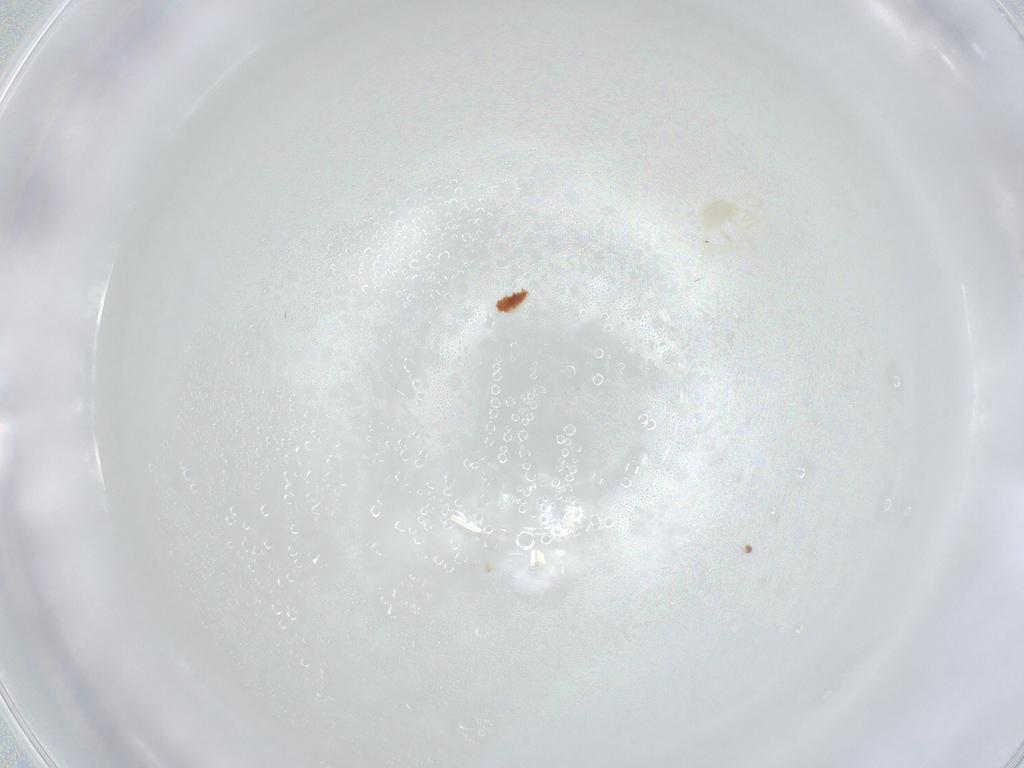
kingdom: Animalia
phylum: Arthropoda
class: Arachnida
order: Trombidiformes
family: Erythraeidae
